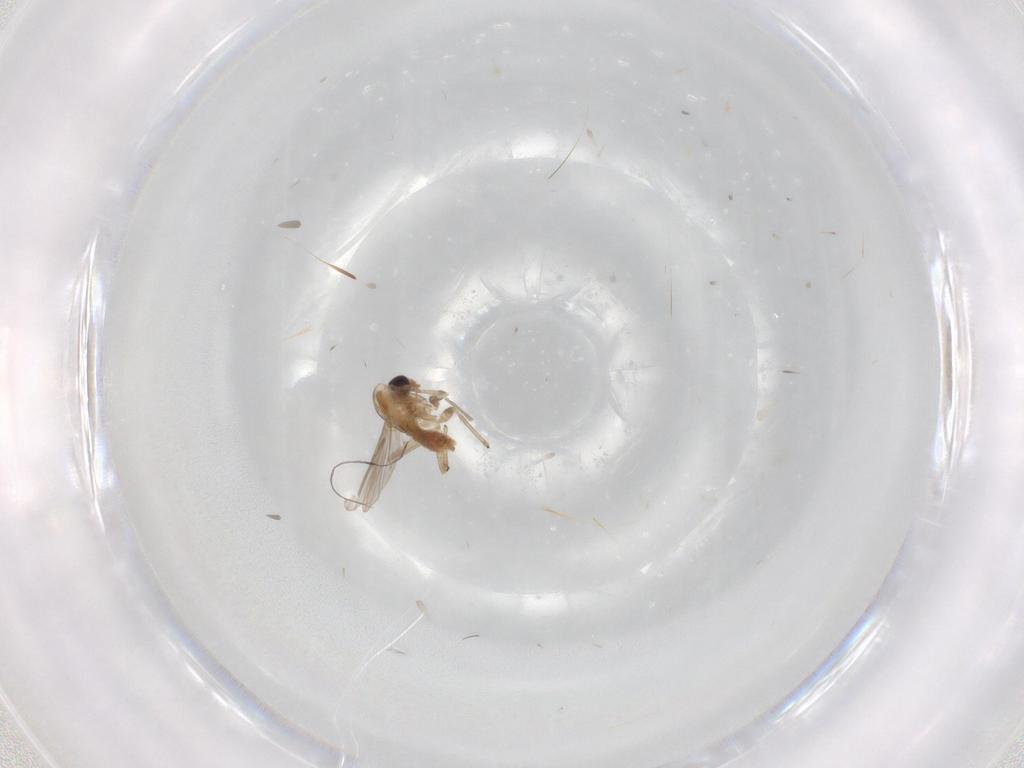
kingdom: Animalia
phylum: Arthropoda
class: Insecta
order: Diptera
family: Chironomidae
